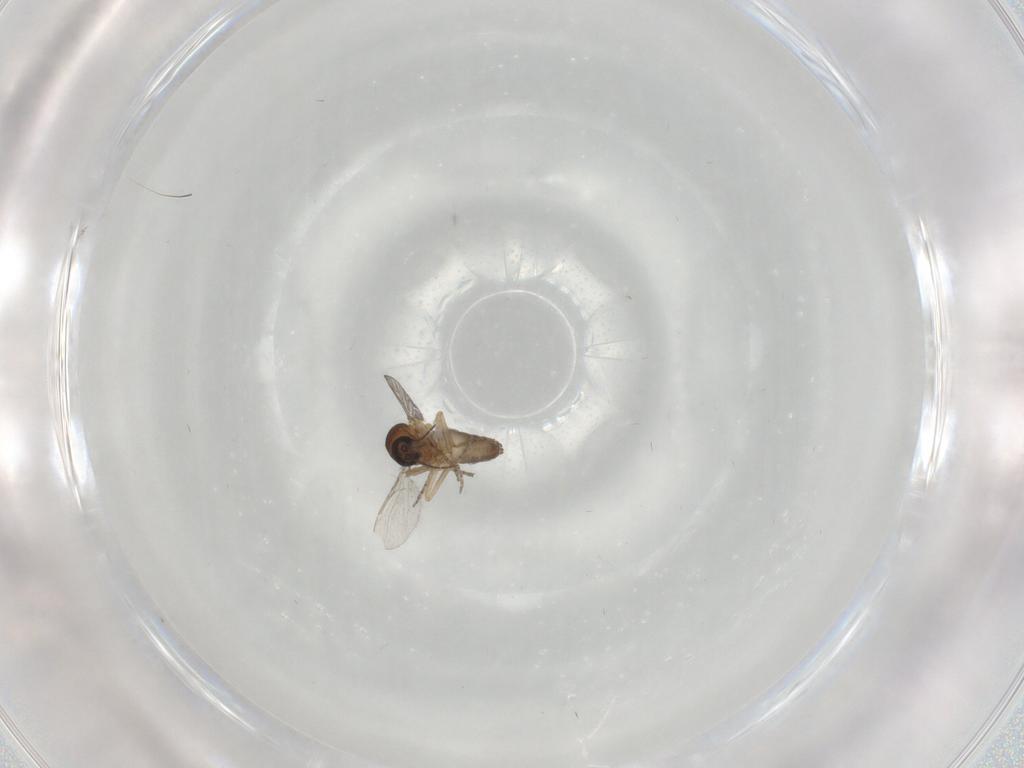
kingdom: Animalia
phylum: Arthropoda
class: Insecta
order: Diptera
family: Ceratopogonidae
